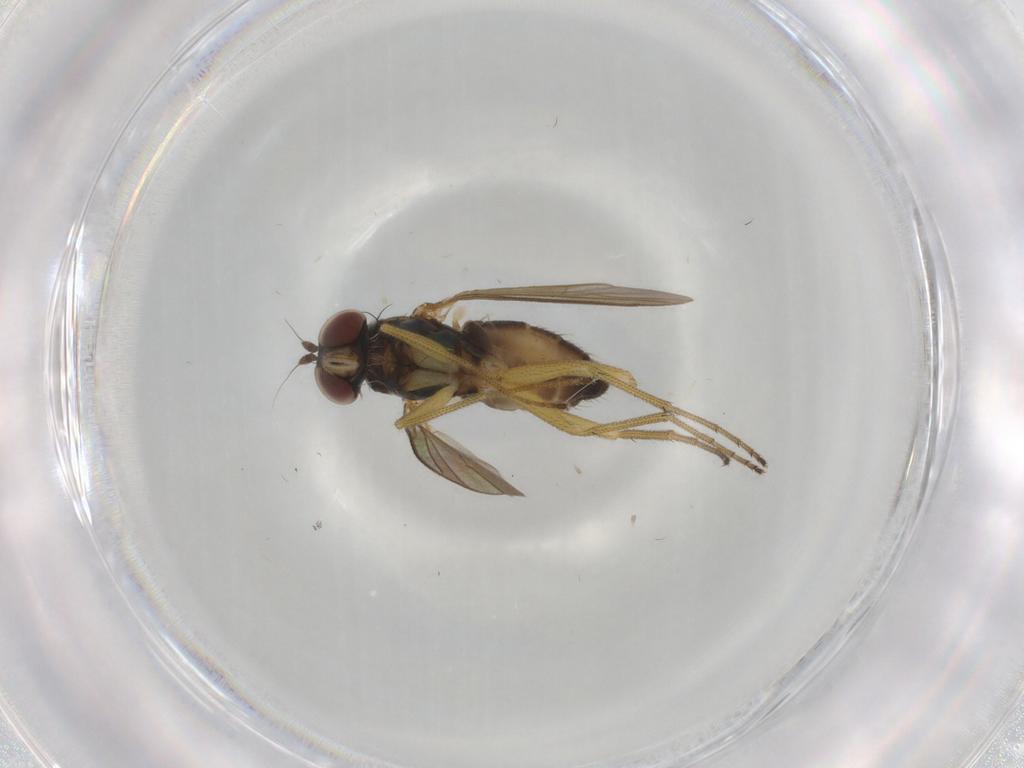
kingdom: Animalia
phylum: Arthropoda
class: Insecta
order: Diptera
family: Dolichopodidae
